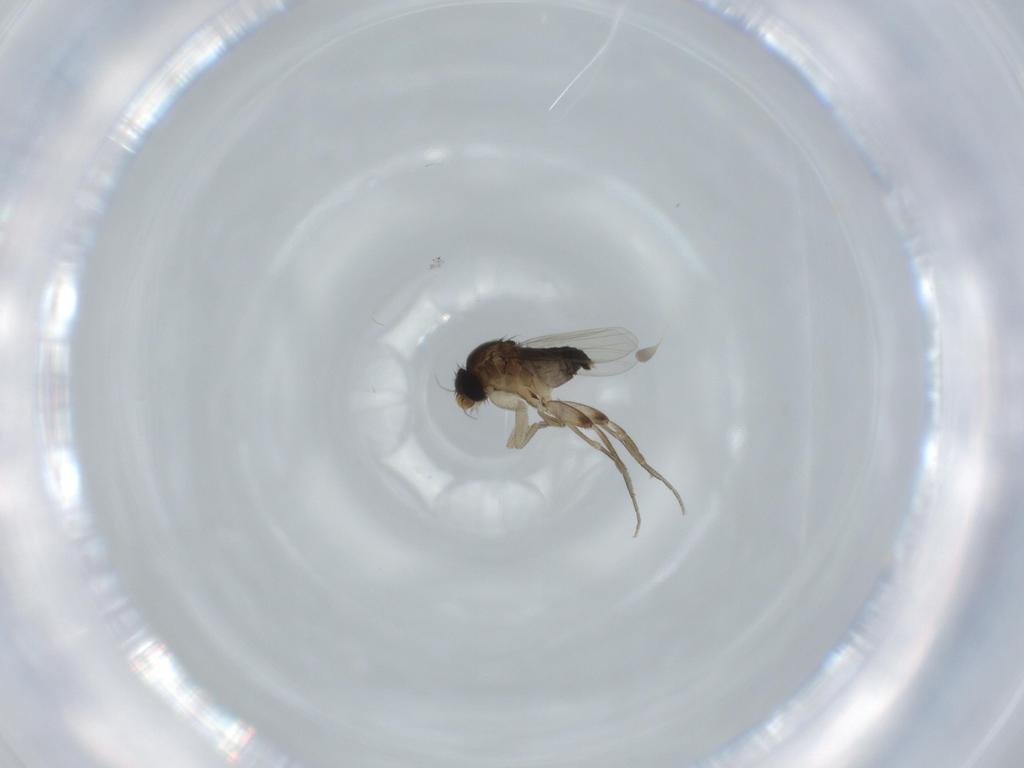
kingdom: Animalia
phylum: Arthropoda
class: Insecta
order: Diptera
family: Phoridae
